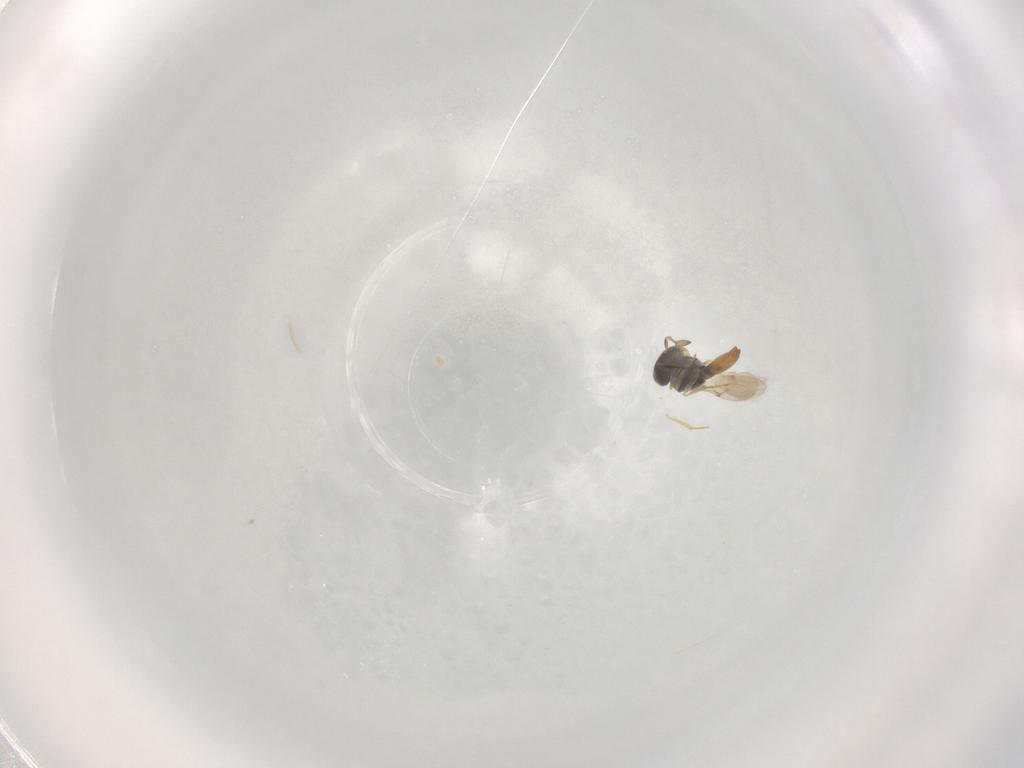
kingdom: Animalia
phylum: Arthropoda
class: Insecta
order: Hymenoptera
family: Scelionidae
